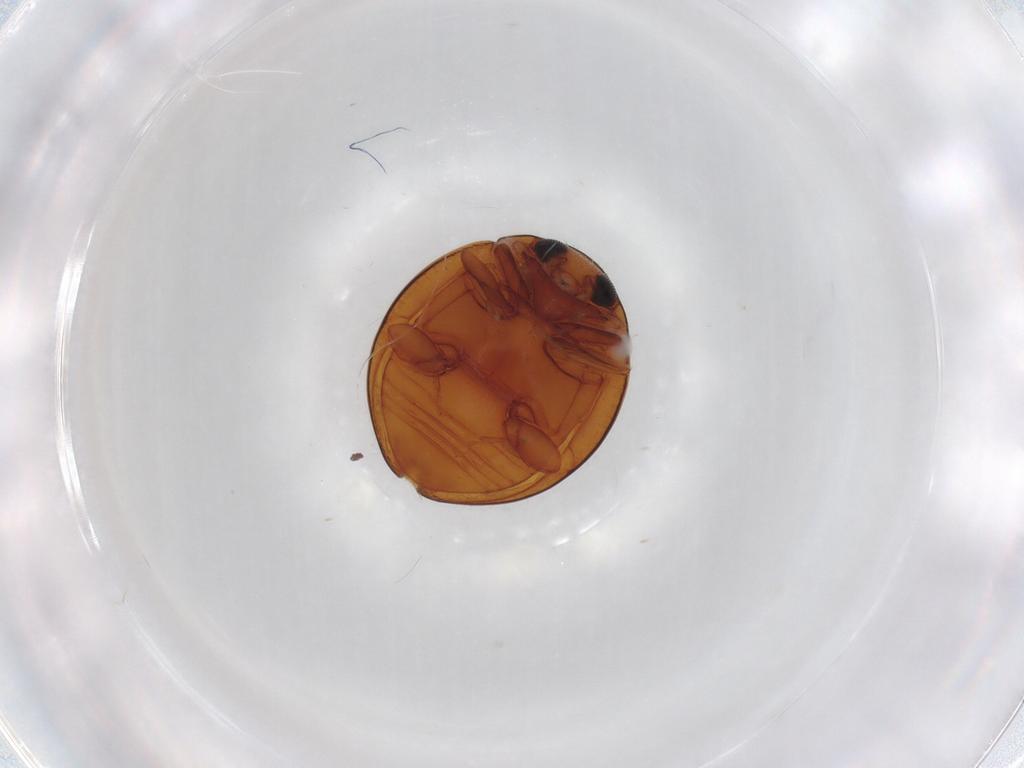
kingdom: Animalia
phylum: Arthropoda
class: Insecta
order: Coleoptera
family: Coccinellidae
